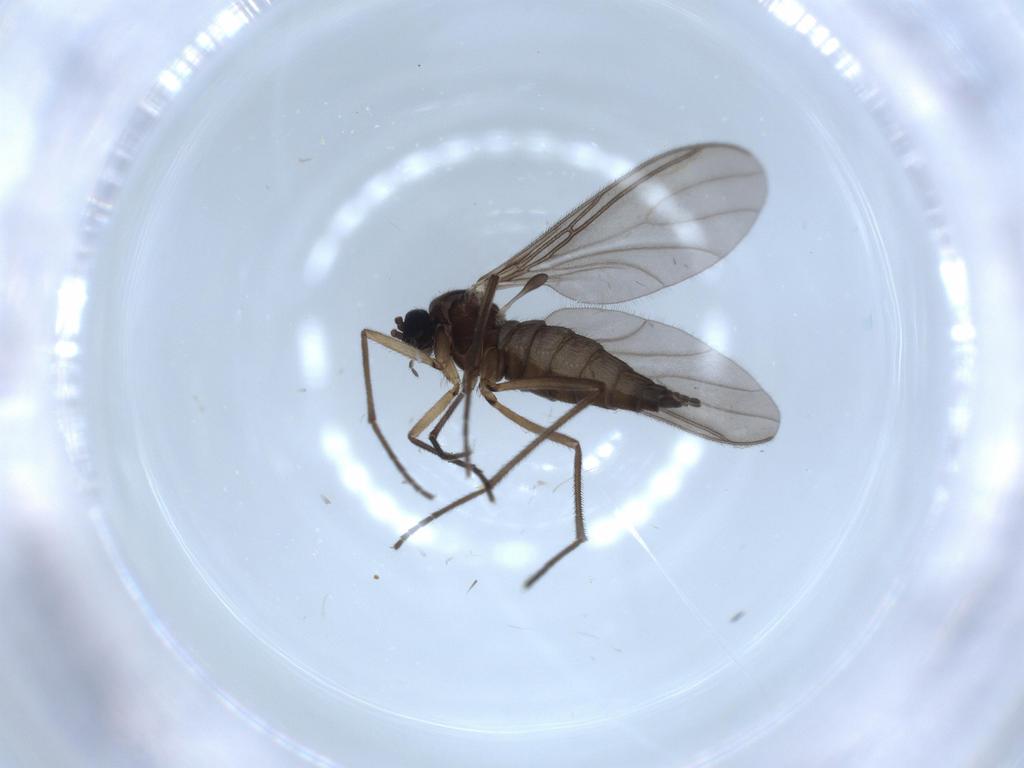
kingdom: Animalia
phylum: Arthropoda
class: Insecta
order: Diptera
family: Sciaridae
